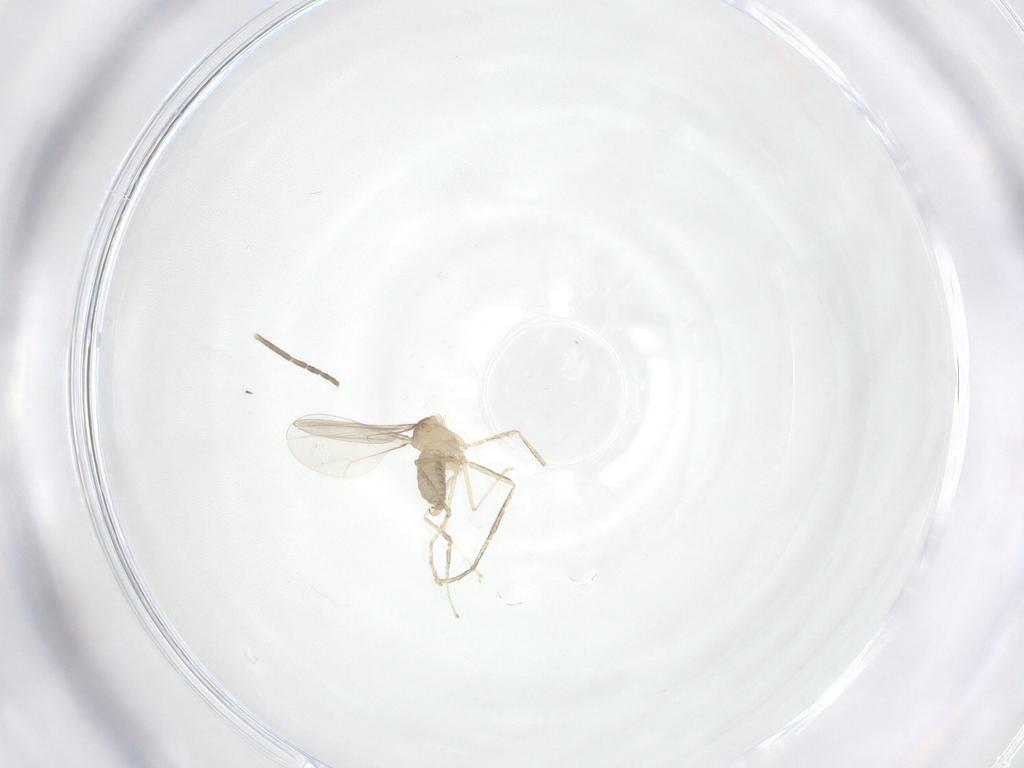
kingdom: Animalia
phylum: Arthropoda
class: Insecta
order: Diptera
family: Cecidomyiidae
